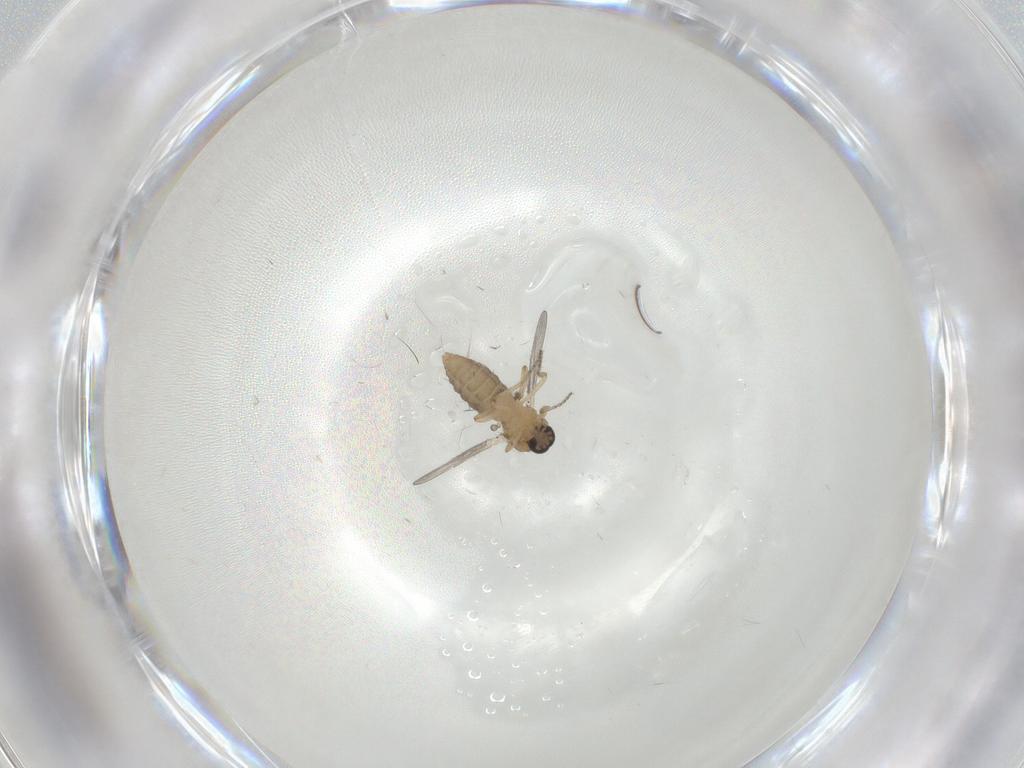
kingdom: Animalia
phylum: Arthropoda
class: Insecta
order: Diptera
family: Ceratopogonidae
